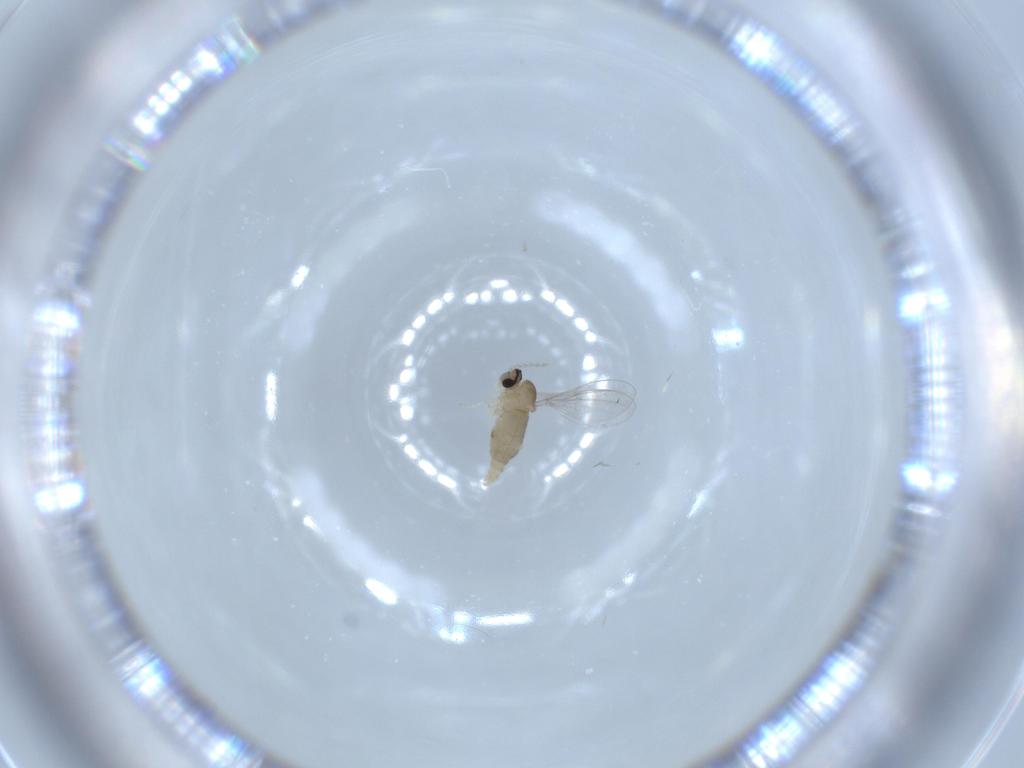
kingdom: Animalia
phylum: Arthropoda
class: Insecta
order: Diptera
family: Cecidomyiidae
